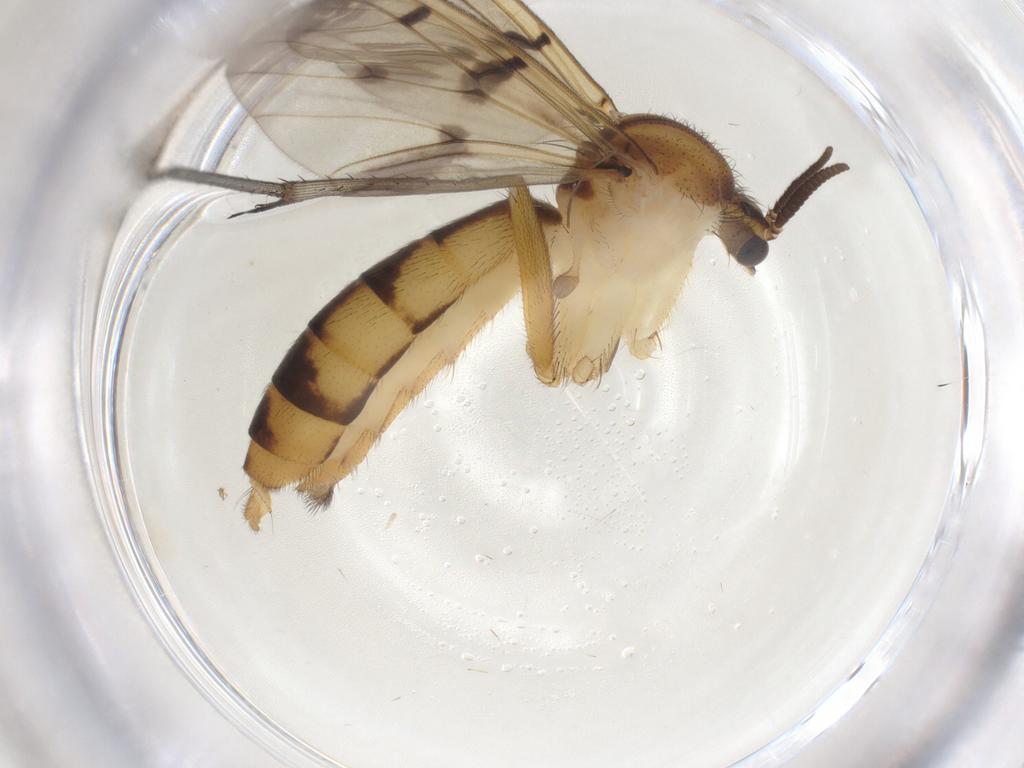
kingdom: Animalia
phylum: Arthropoda
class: Insecta
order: Diptera
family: Mycetophilidae
